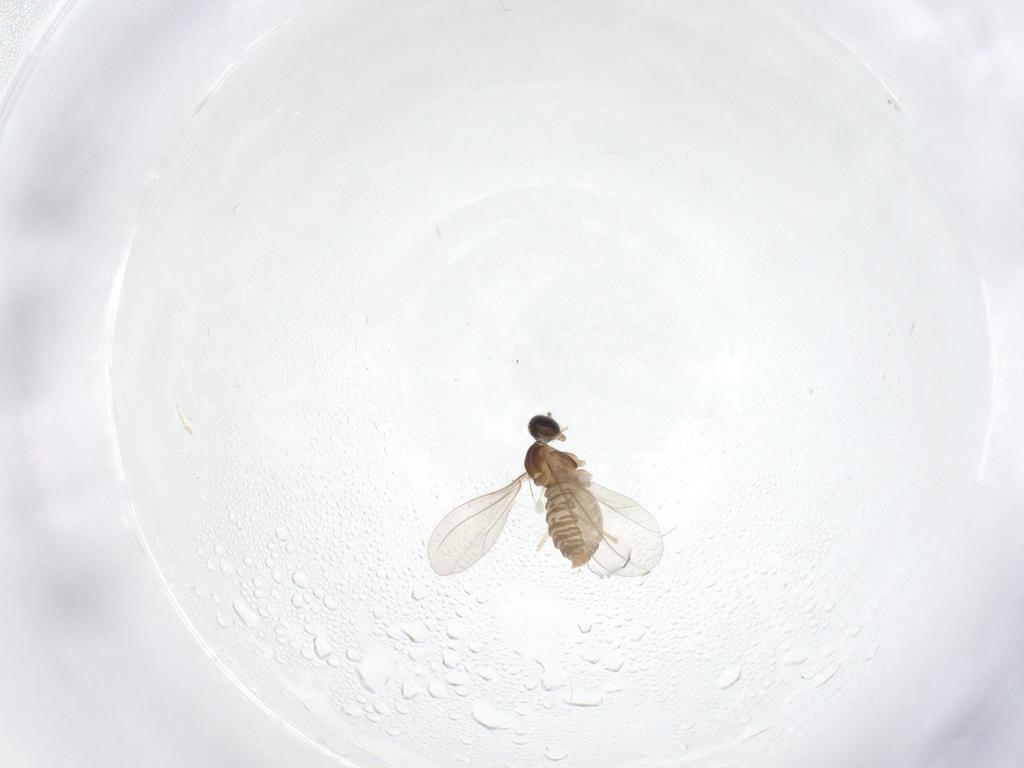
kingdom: Animalia
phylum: Arthropoda
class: Insecta
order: Diptera
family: Cecidomyiidae
